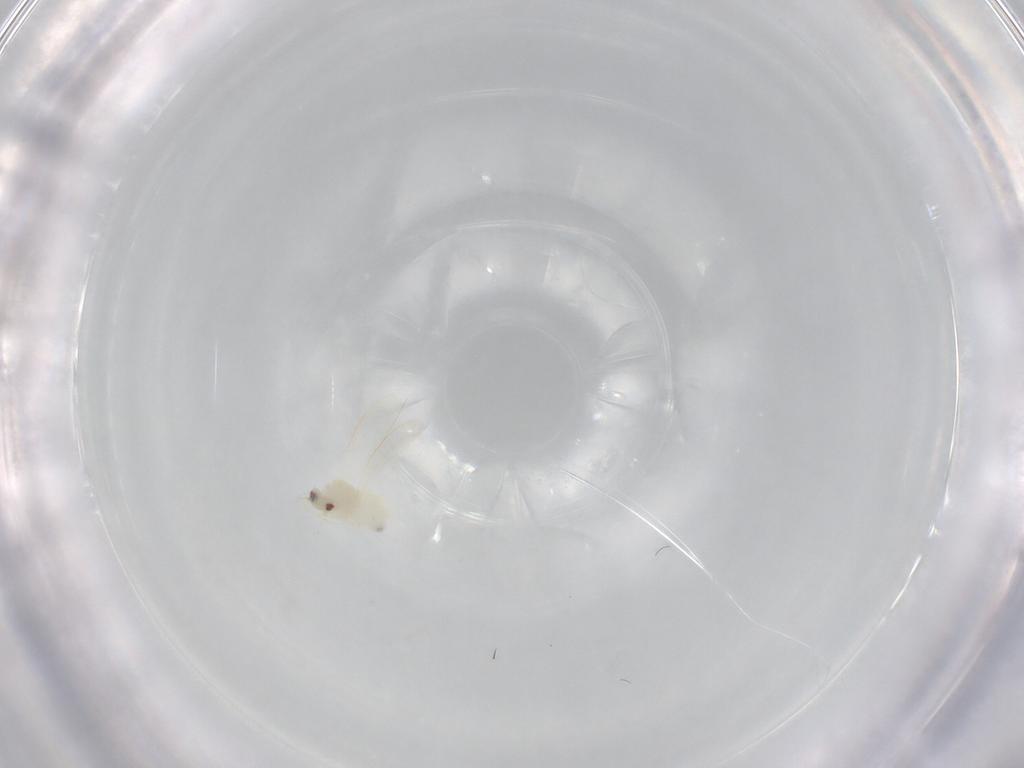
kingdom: Animalia
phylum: Arthropoda
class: Insecta
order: Hemiptera
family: Aleyrodidae
